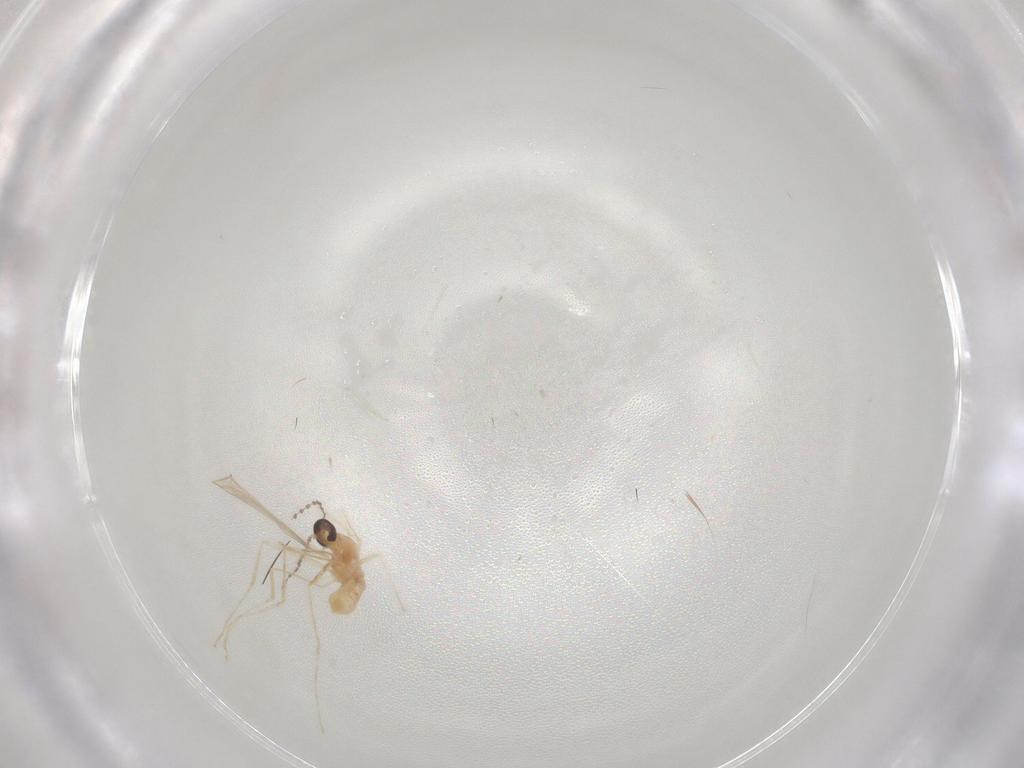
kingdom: Animalia
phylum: Arthropoda
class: Insecta
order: Diptera
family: Cecidomyiidae
